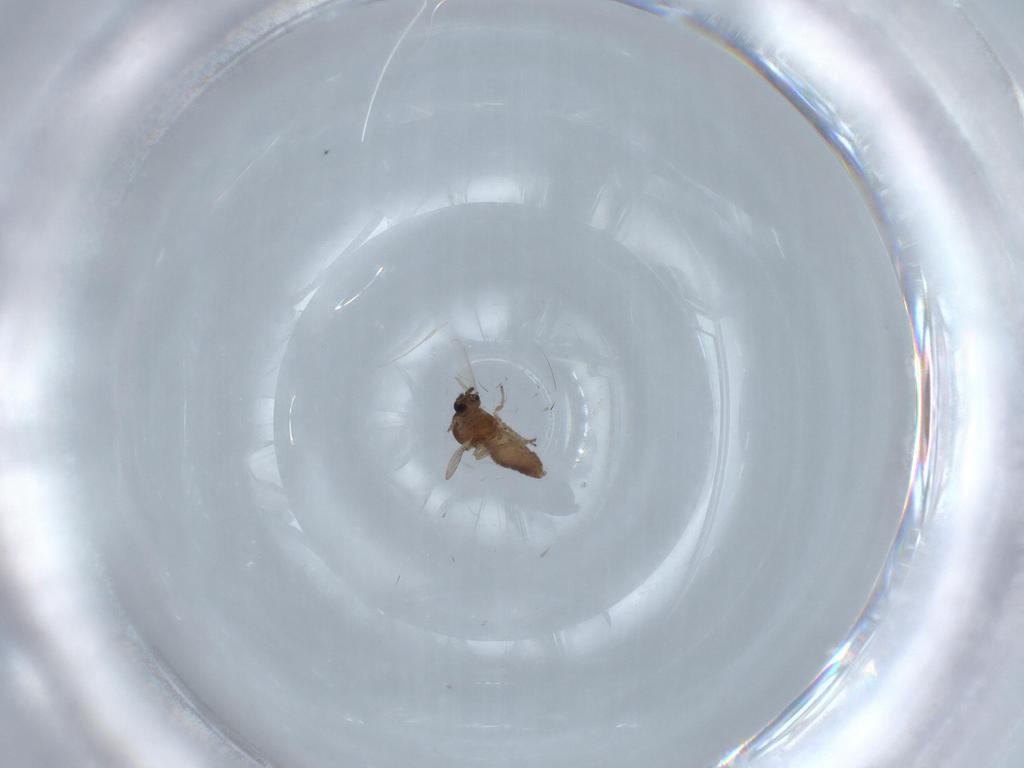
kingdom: Animalia
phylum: Arthropoda
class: Insecta
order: Diptera
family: Ceratopogonidae
